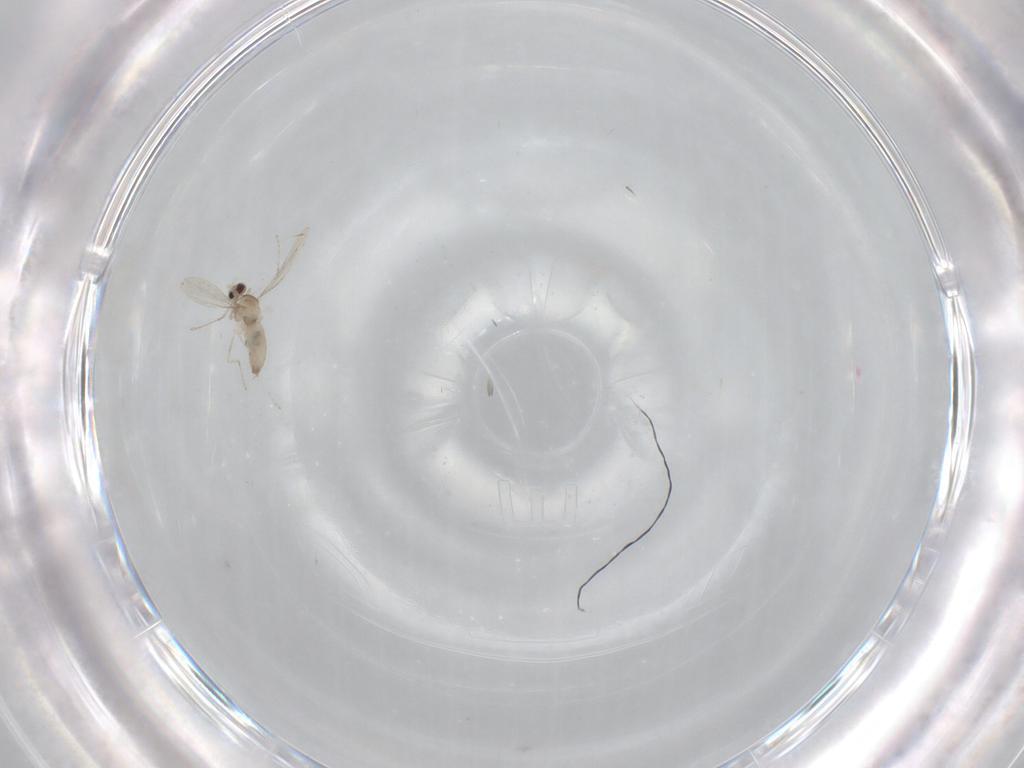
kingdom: Animalia
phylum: Arthropoda
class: Insecta
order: Diptera
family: Cecidomyiidae
